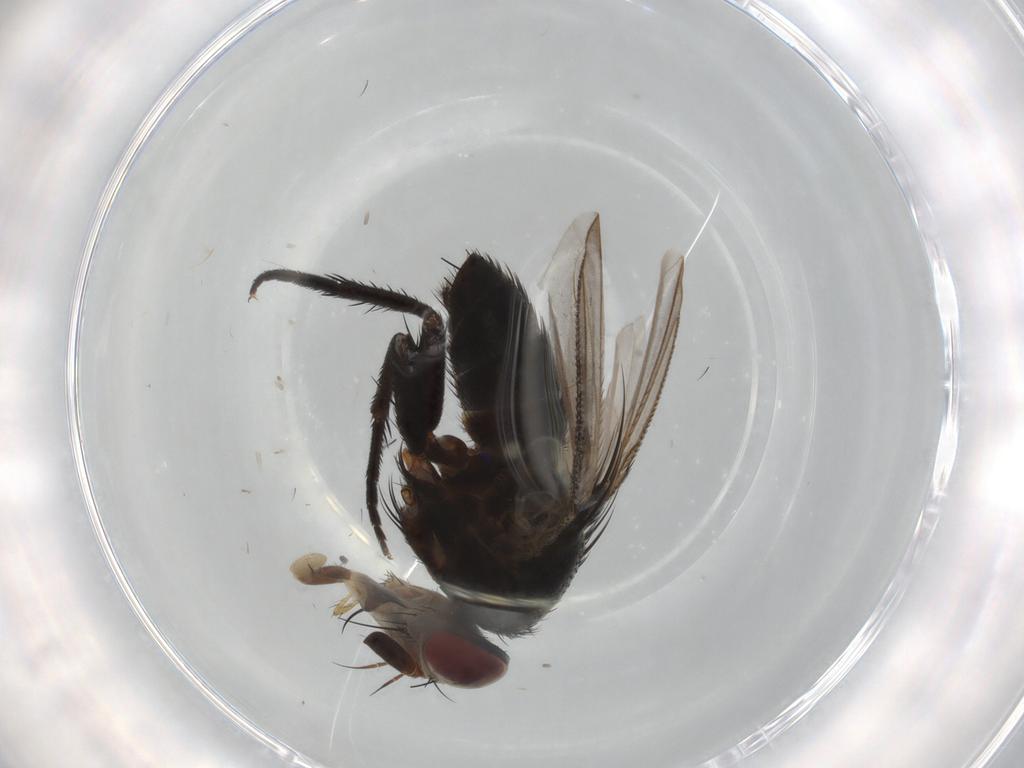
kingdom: Animalia
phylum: Arthropoda
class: Insecta
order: Diptera
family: Tachinidae
